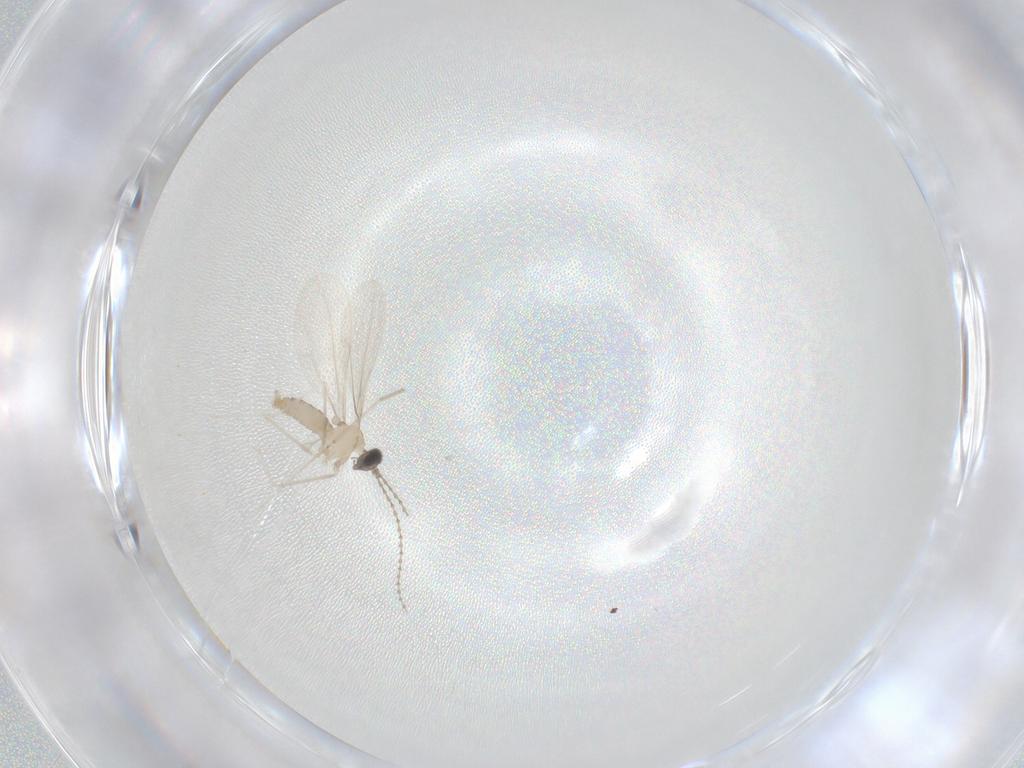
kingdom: Animalia
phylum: Arthropoda
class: Insecta
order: Diptera
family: Cecidomyiidae
